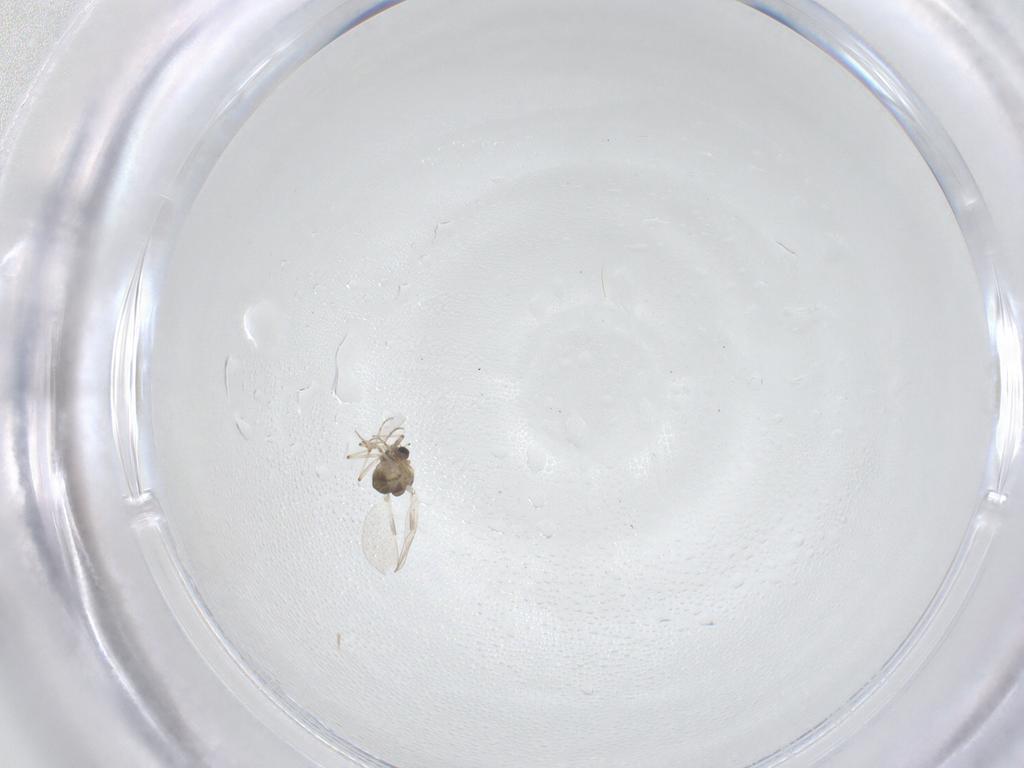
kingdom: Animalia
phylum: Arthropoda
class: Insecta
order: Diptera
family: Chironomidae
